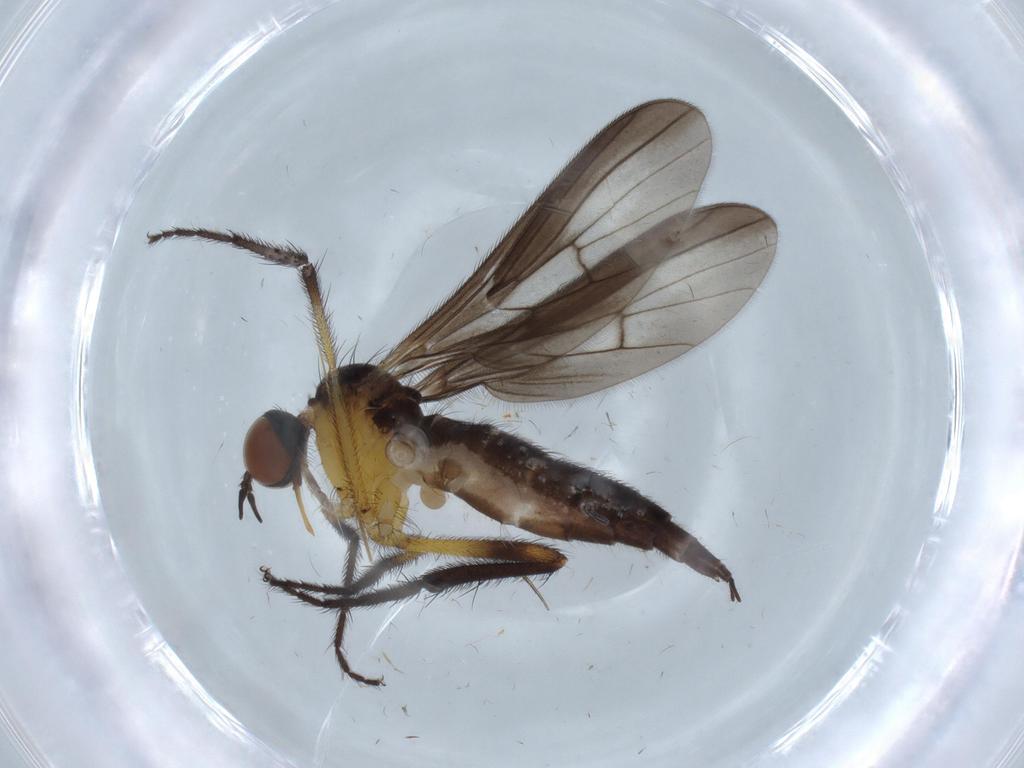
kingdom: Animalia
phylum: Arthropoda
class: Insecta
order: Diptera
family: Drosophilidae
